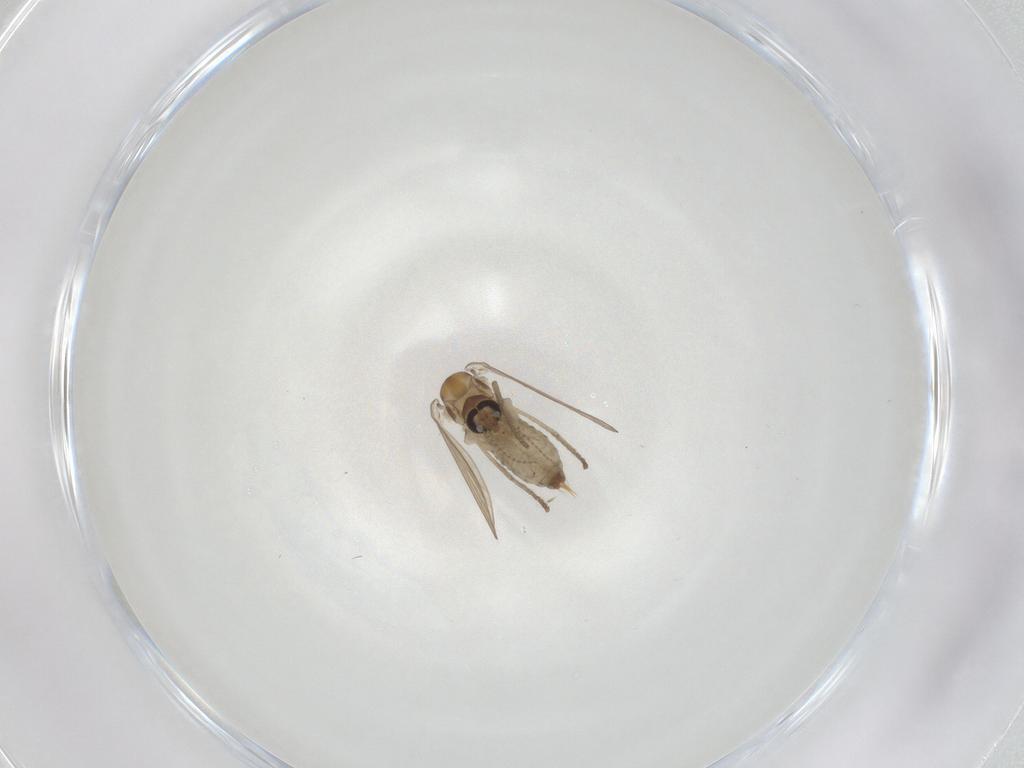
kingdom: Animalia
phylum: Arthropoda
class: Insecta
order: Diptera
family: Psychodidae
